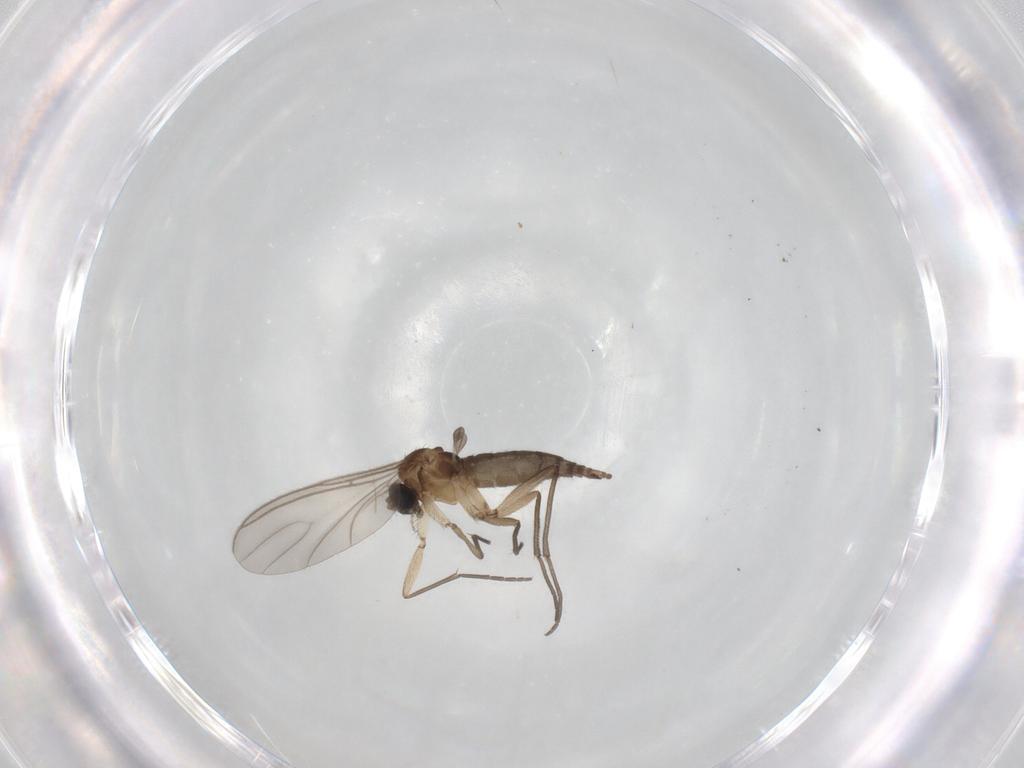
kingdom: Animalia
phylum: Arthropoda
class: Insecta
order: Diptera
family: Sciaridae
